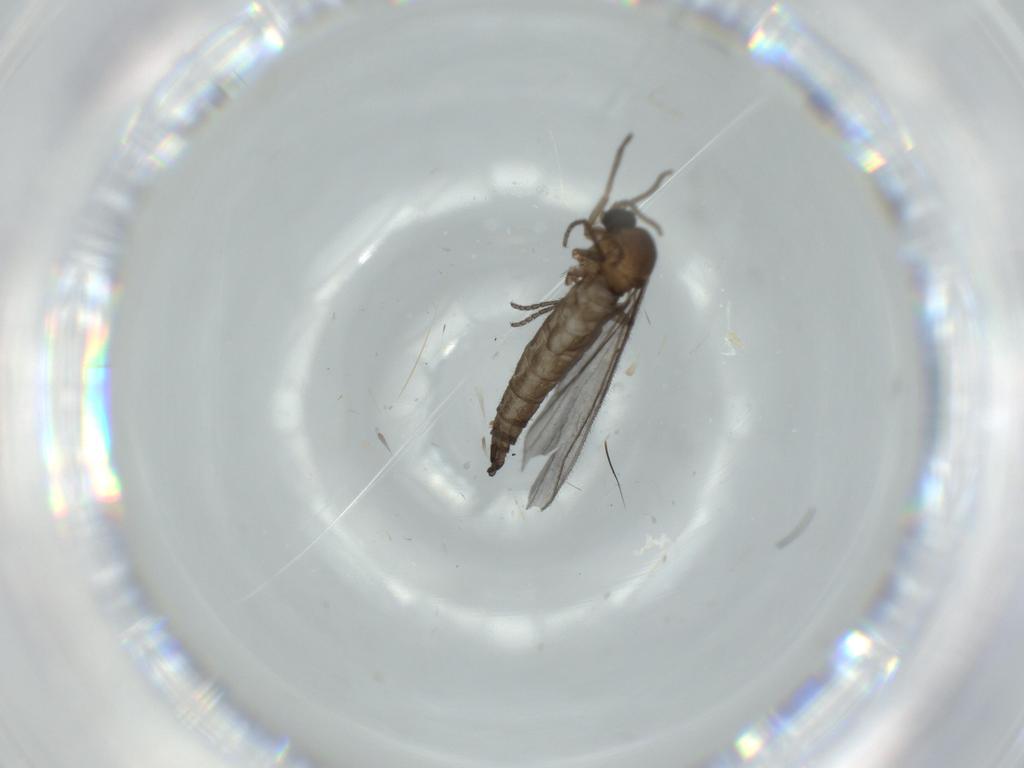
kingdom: Animalia
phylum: Arthropoda
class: Insecta
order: Diptera
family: Sciaridae
